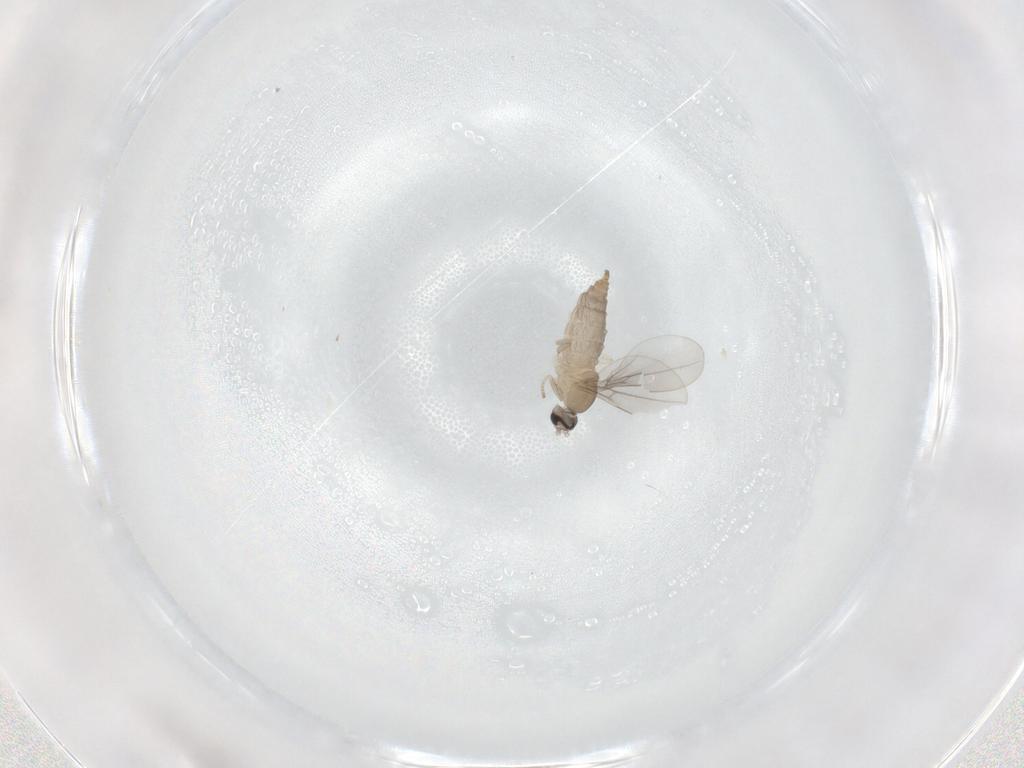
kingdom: Animalia
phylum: Arthropoda
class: Insecta
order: Diptera
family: Cecidomyiidae
